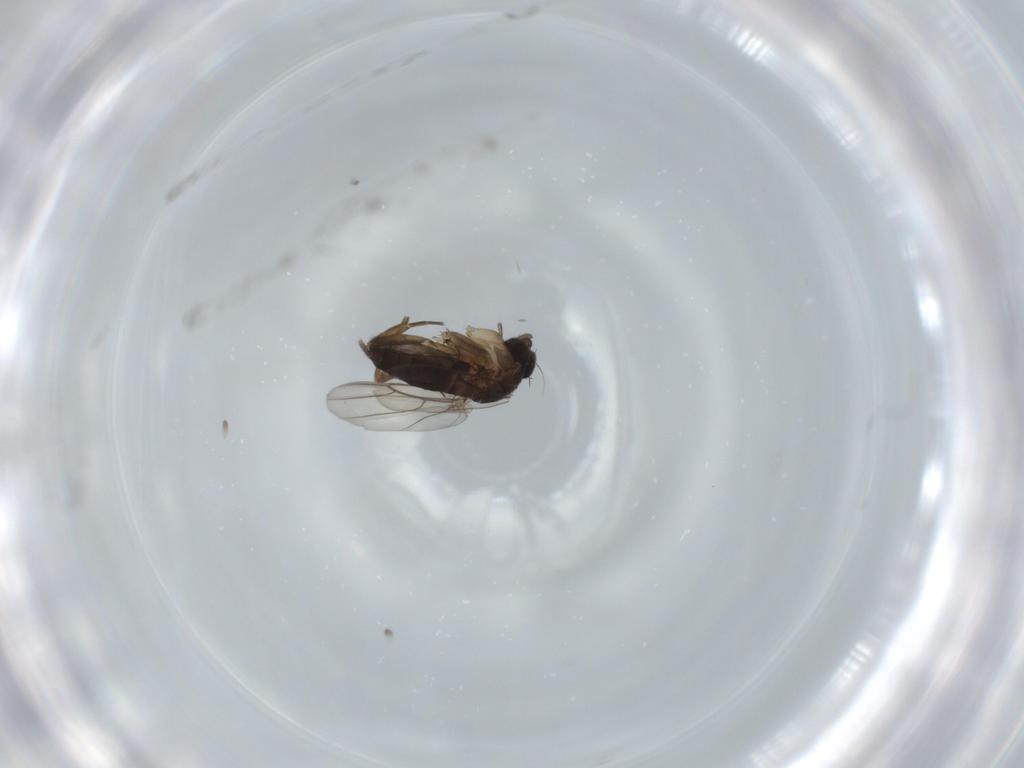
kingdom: Animalia
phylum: Arthropoda
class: Insecta
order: Diptera
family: Phoridae
